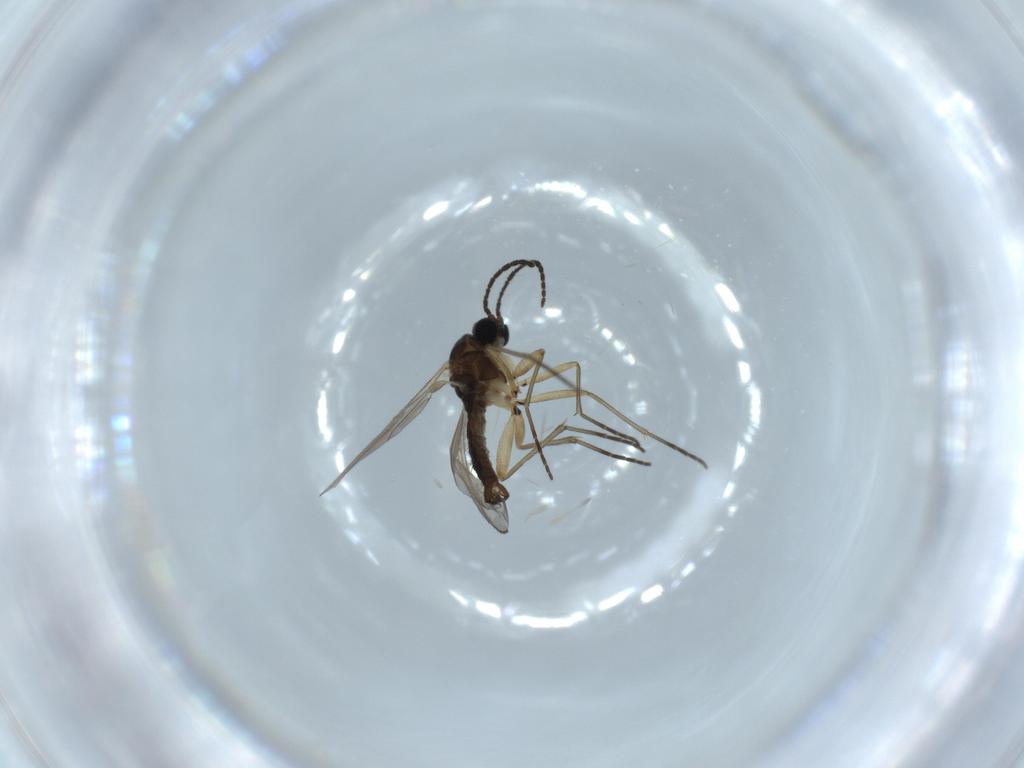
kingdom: Animalia
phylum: Arthropoda
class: Insecta
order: Diptera
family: Sciaridae
